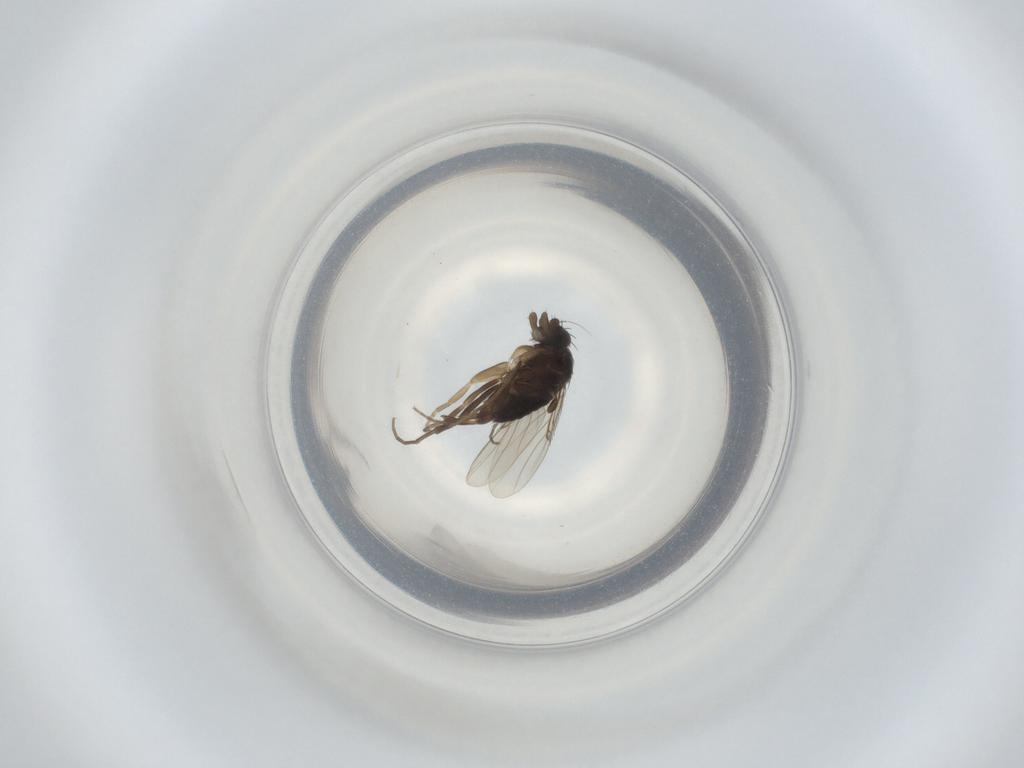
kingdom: Animalia
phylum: Arthropoda
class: Insecta
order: Diptera
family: Phoridae
